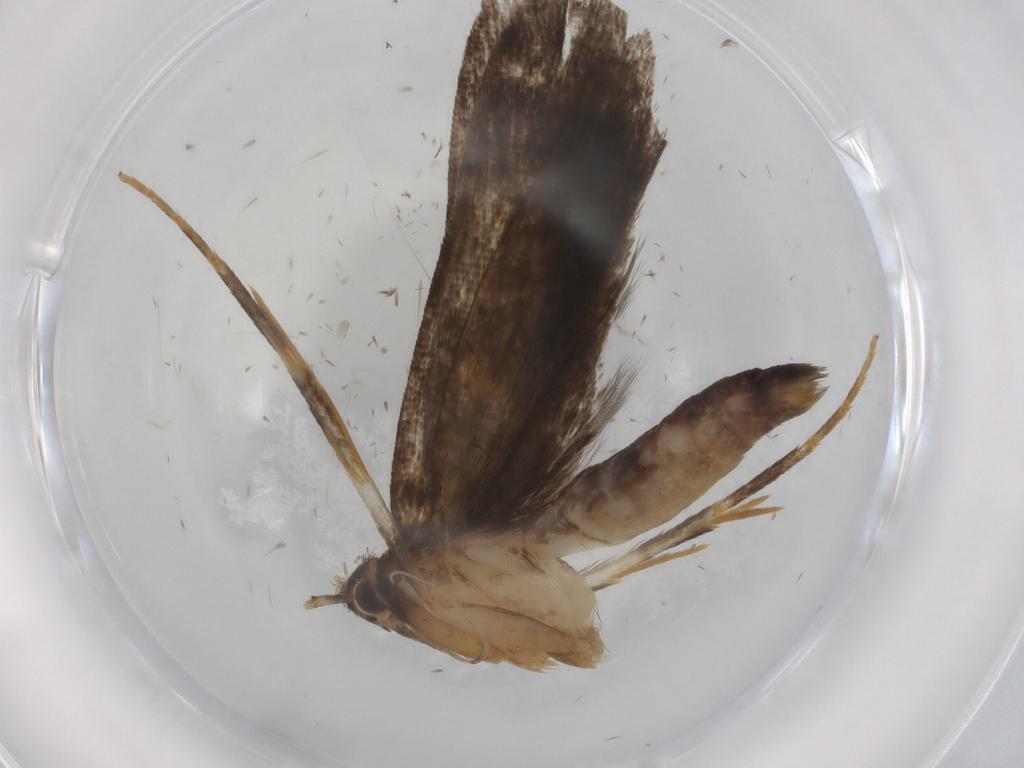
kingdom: Animalia
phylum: Arthropoda
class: Insecta
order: Lepidoptera
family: Gelechiidae
